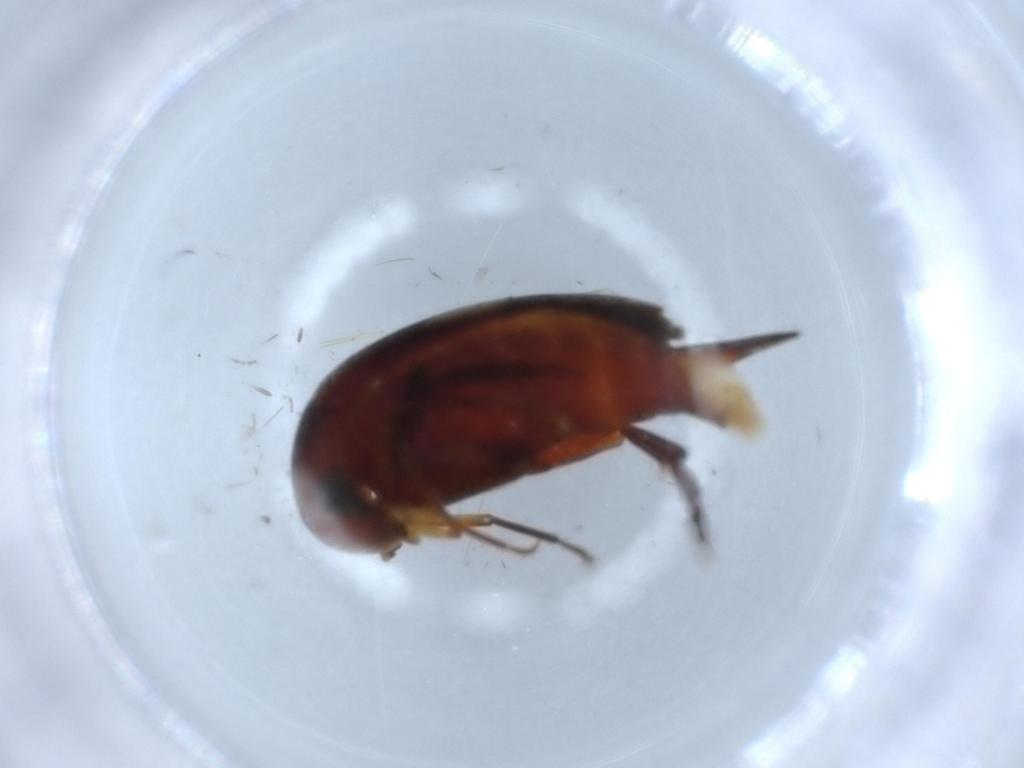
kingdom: Animalia
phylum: Arthropoda
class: Insecta
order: Coleoptera
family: Mordellidae
